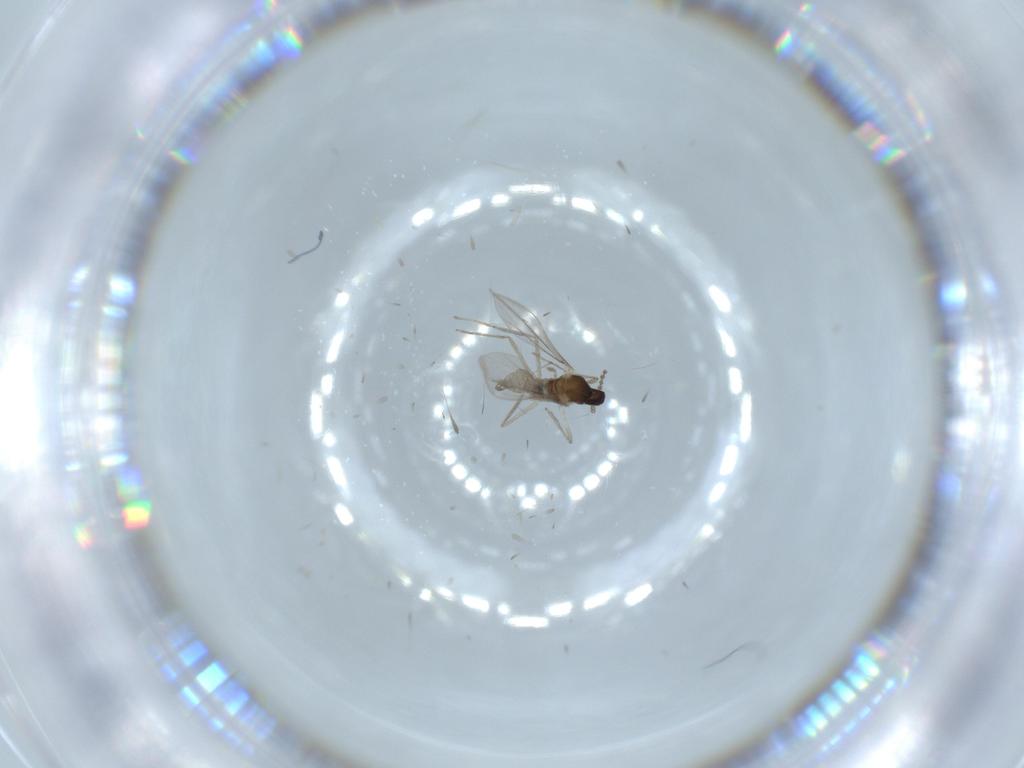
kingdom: Animalia
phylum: Arthropoda
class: Insecta
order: Diptera
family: Cecidomyiidae
